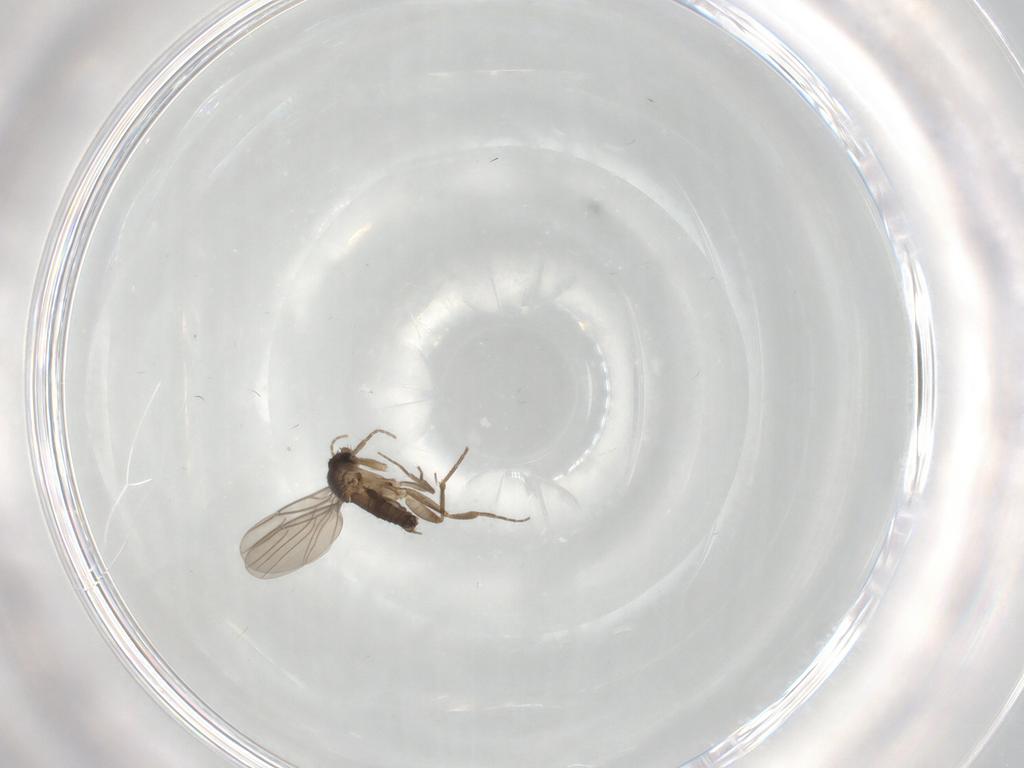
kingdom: Animalia
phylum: Arthropoda
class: Insecta
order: Diptera
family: Phoridae
